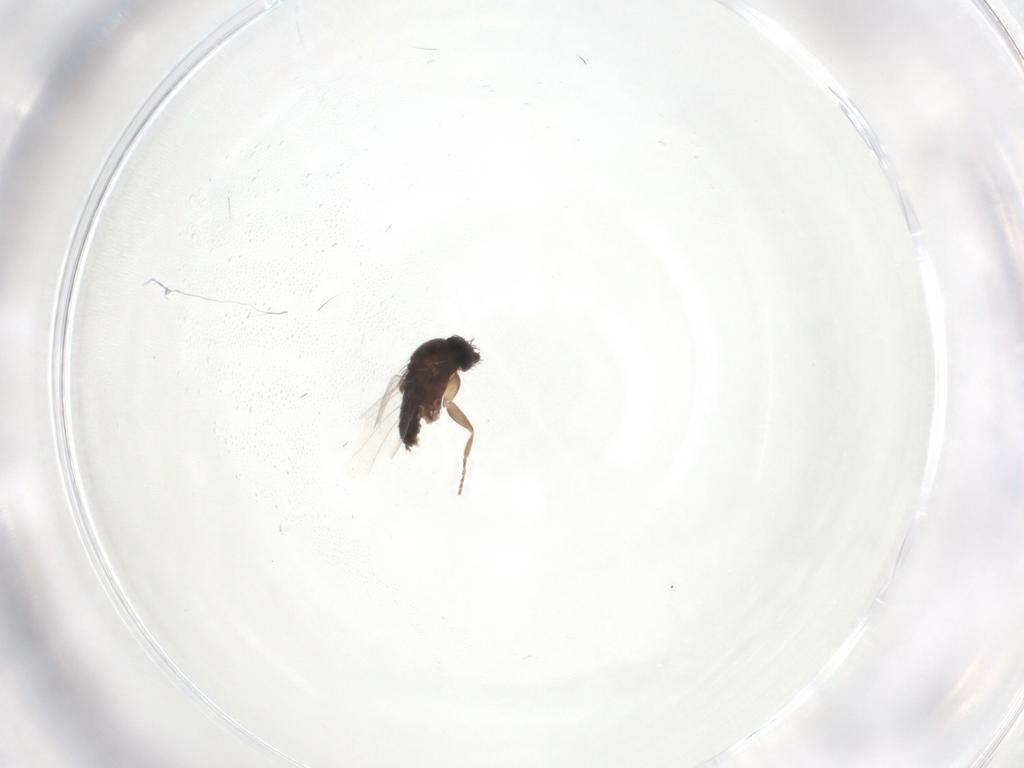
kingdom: Animalia
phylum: Arthropoda
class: Insecta
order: Diptera
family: Phoridae
